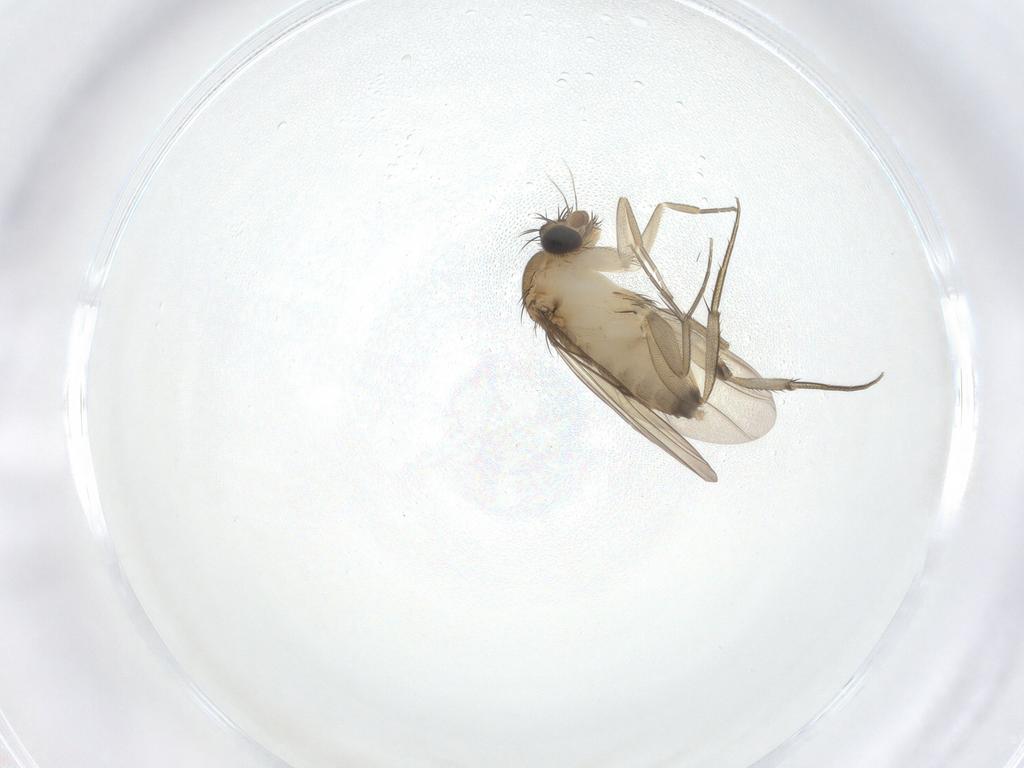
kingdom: Animalia
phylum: Arthropoda
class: Insecta
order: Diptera
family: Phoridae
